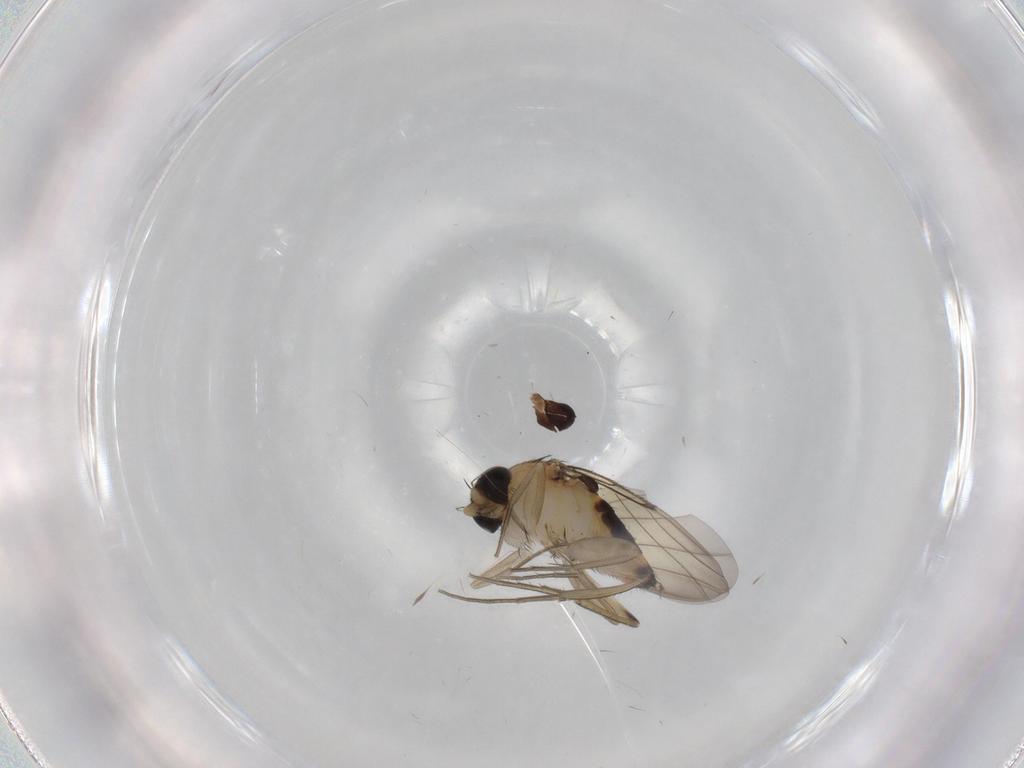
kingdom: Animalia
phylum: Arthropoda
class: Insecta
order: Diptera
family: Phoridae
